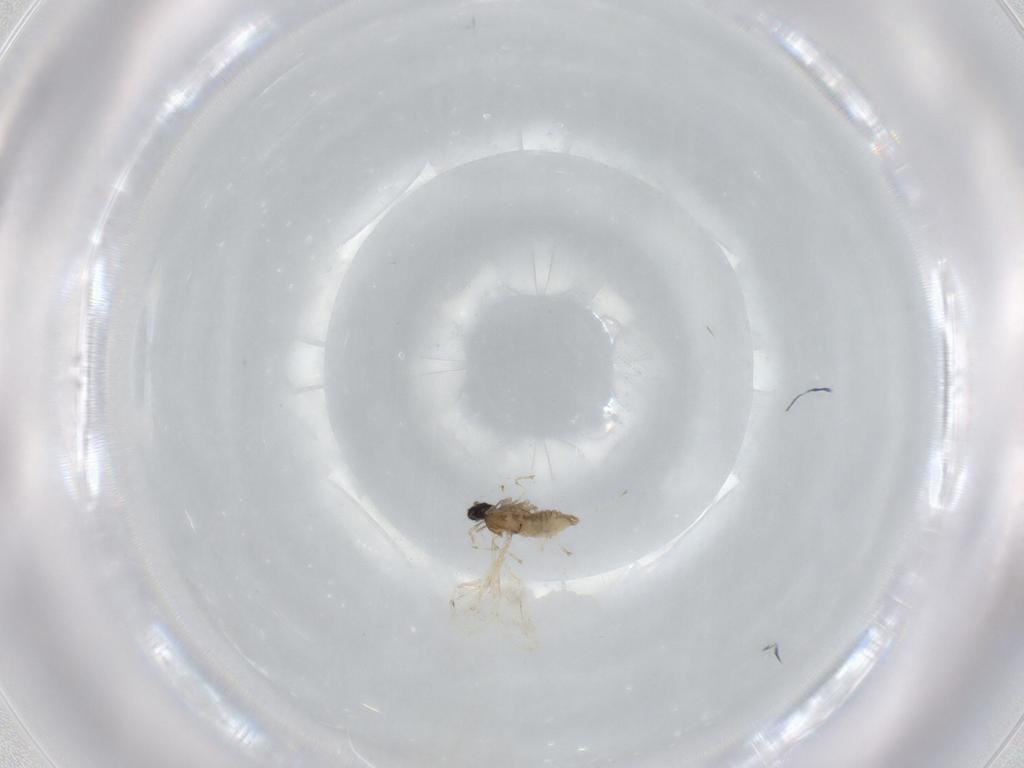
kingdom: Animalia
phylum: Arthropoda
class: Insecta
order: Diptera
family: Cecidomyiidae
